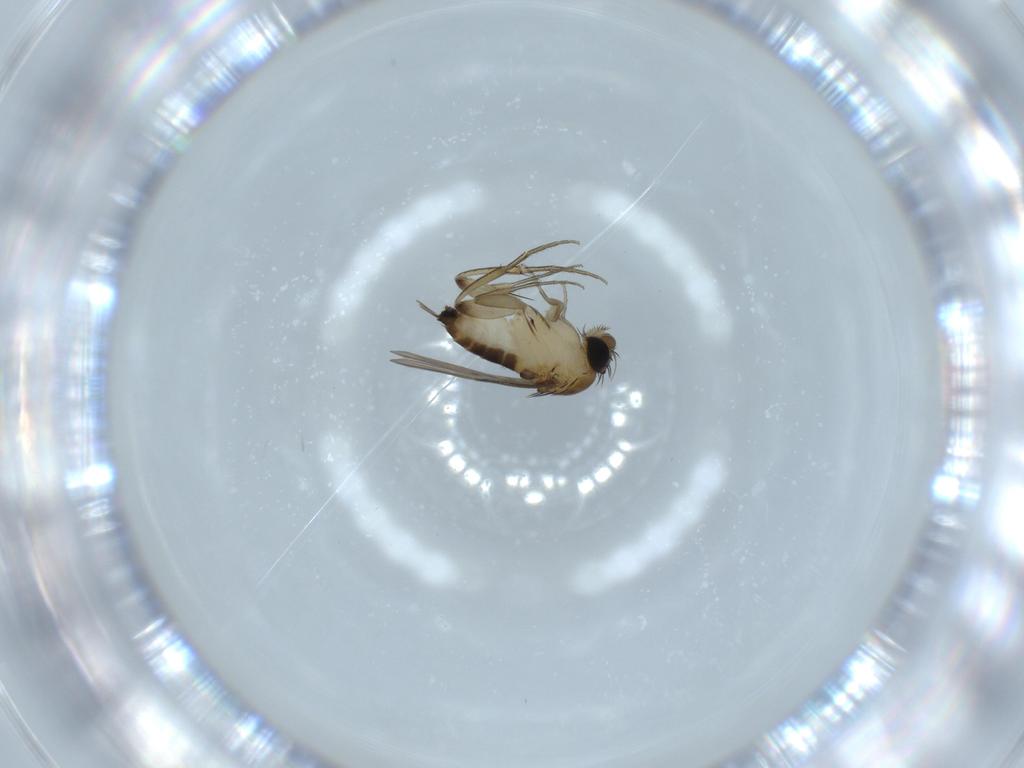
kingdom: Animalia
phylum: Arthropoda
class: Insecta
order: Diptera
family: Phoridae
